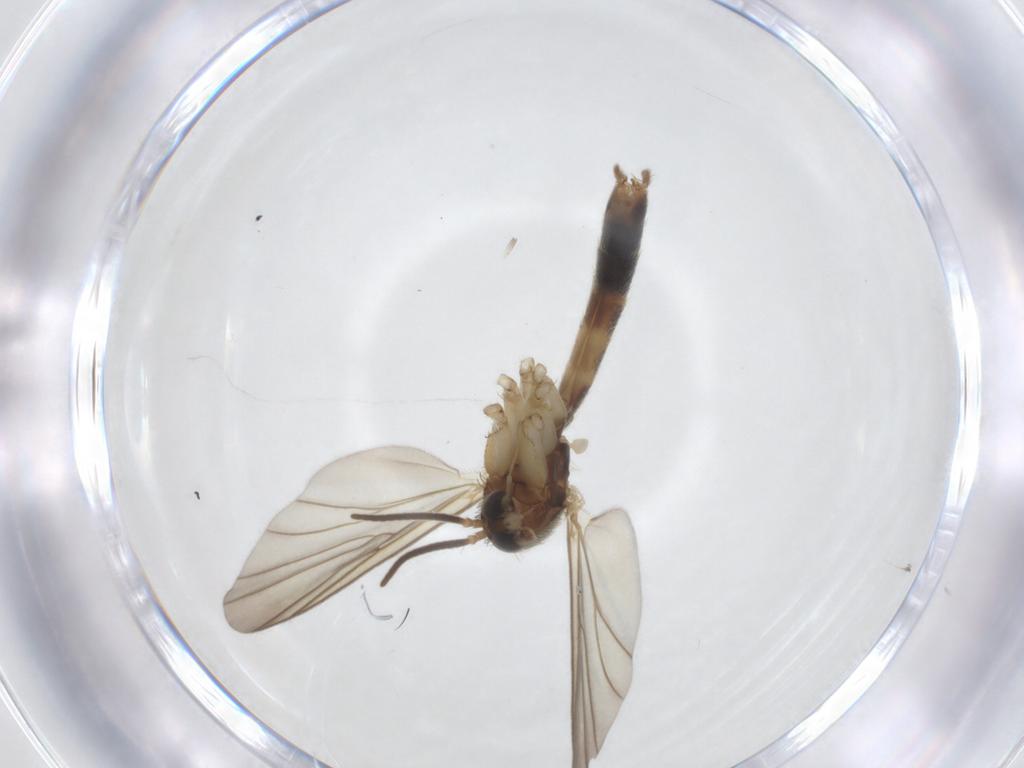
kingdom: Animalia
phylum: Arthropoda
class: Insecta
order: Diptera
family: Mycetophilidae
